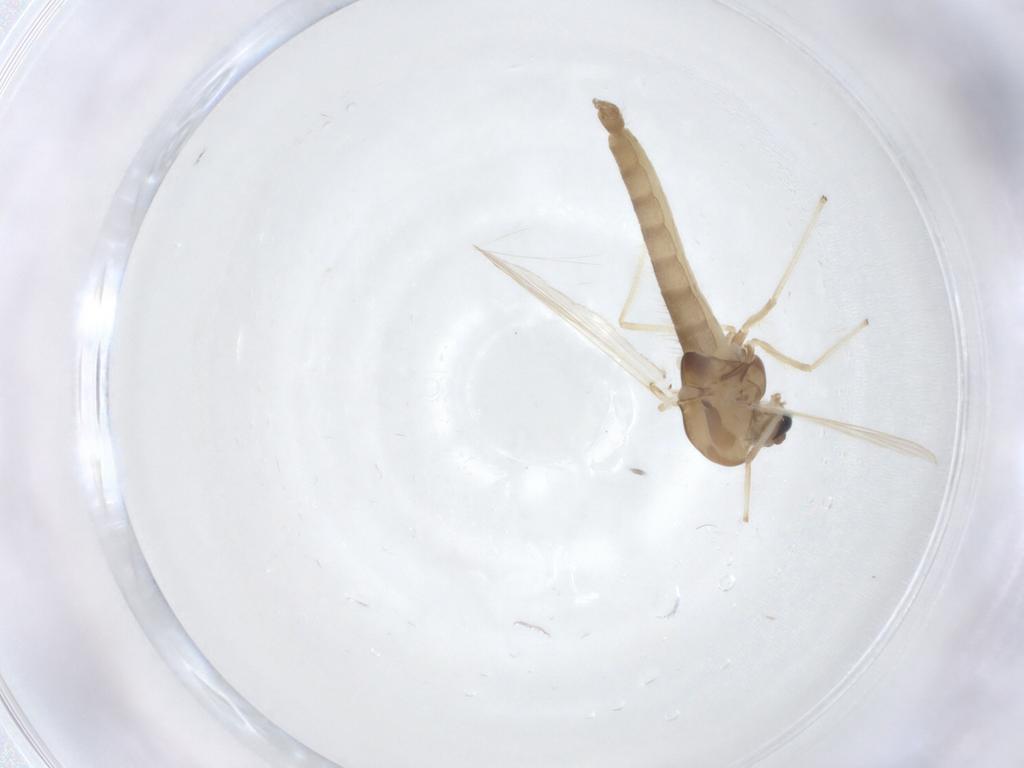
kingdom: Animalia
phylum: Arthropoda
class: Insecta
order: Diptera
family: Chironomidae
